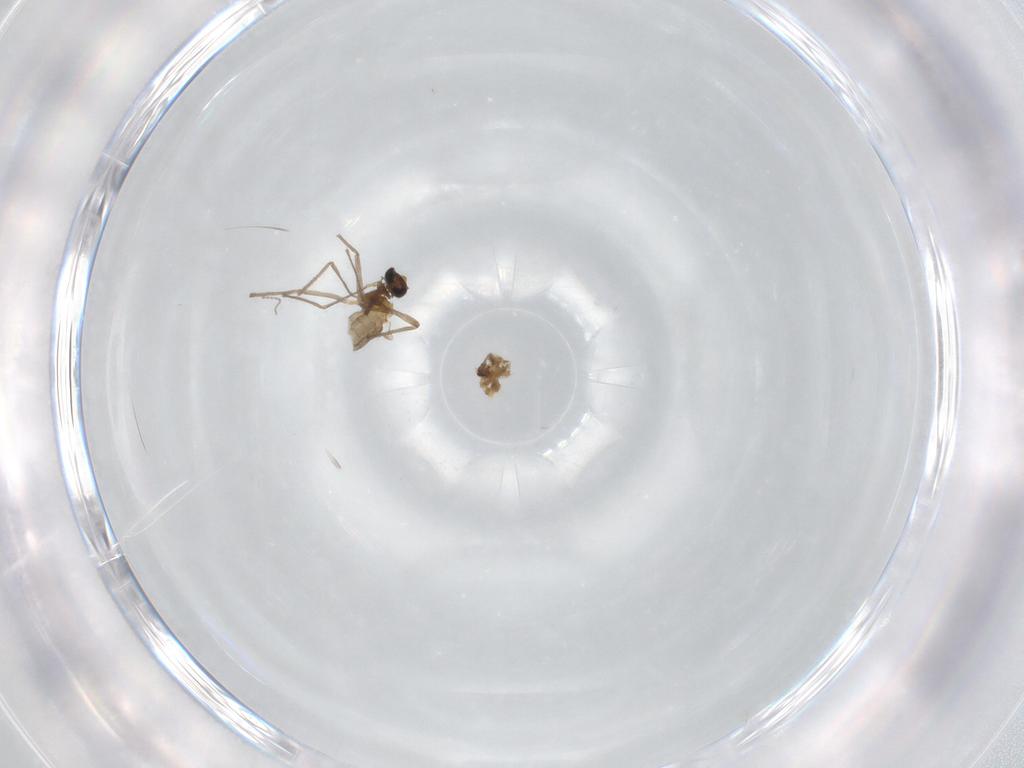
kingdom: Animalia
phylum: Arthropoda
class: Insecta
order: Diptera
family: Chironomidae
